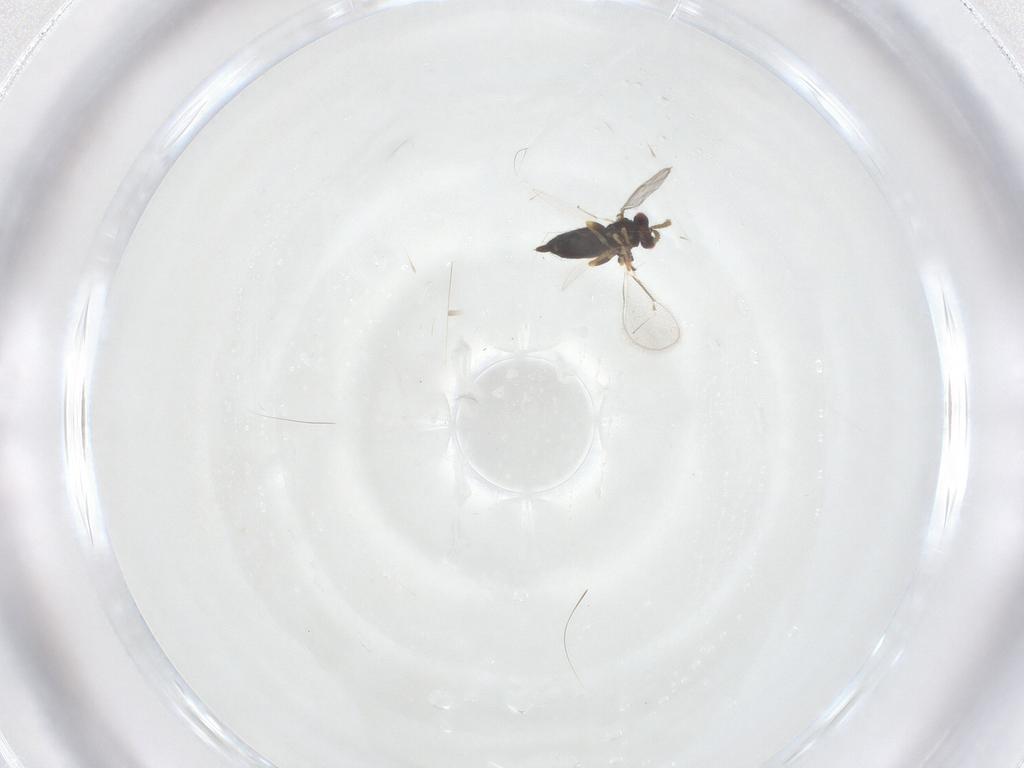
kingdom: Animalia
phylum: Arthropoda
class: Insecta
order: Hymenoptera
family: Eulophidae
